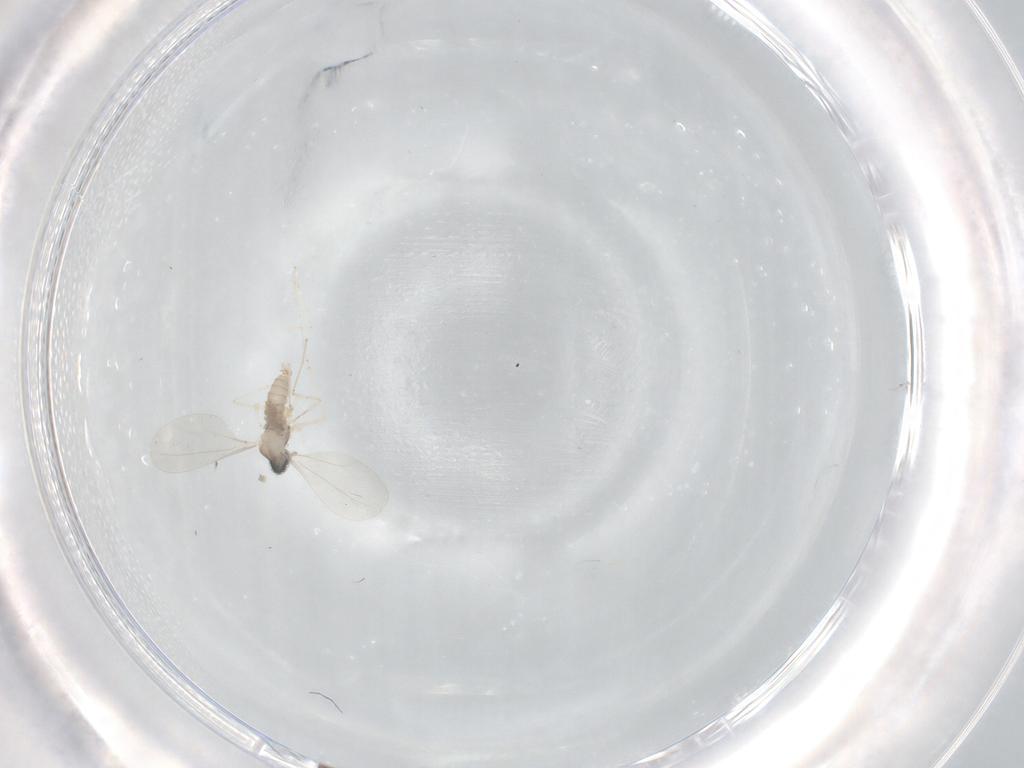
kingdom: Animalia
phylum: Arthropoda
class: Insecta
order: Diptera
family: Cecidomyiidae
